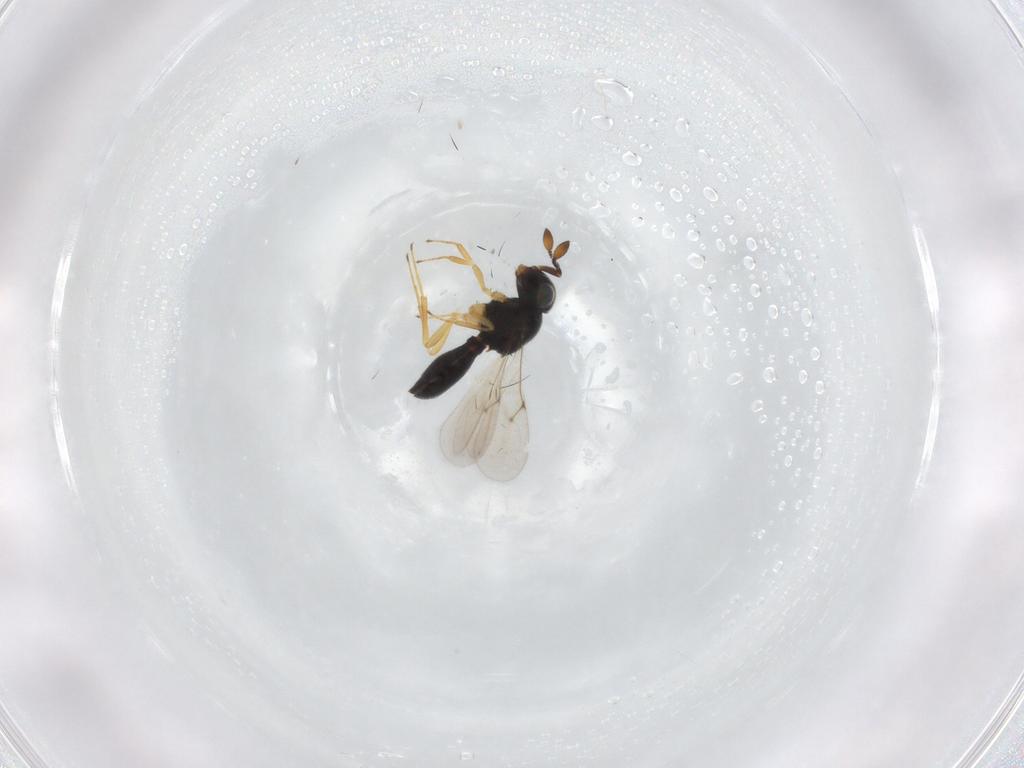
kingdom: Animalia
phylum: Arthropoda
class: Insecta
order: Hymenoptera
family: Scelionidae
